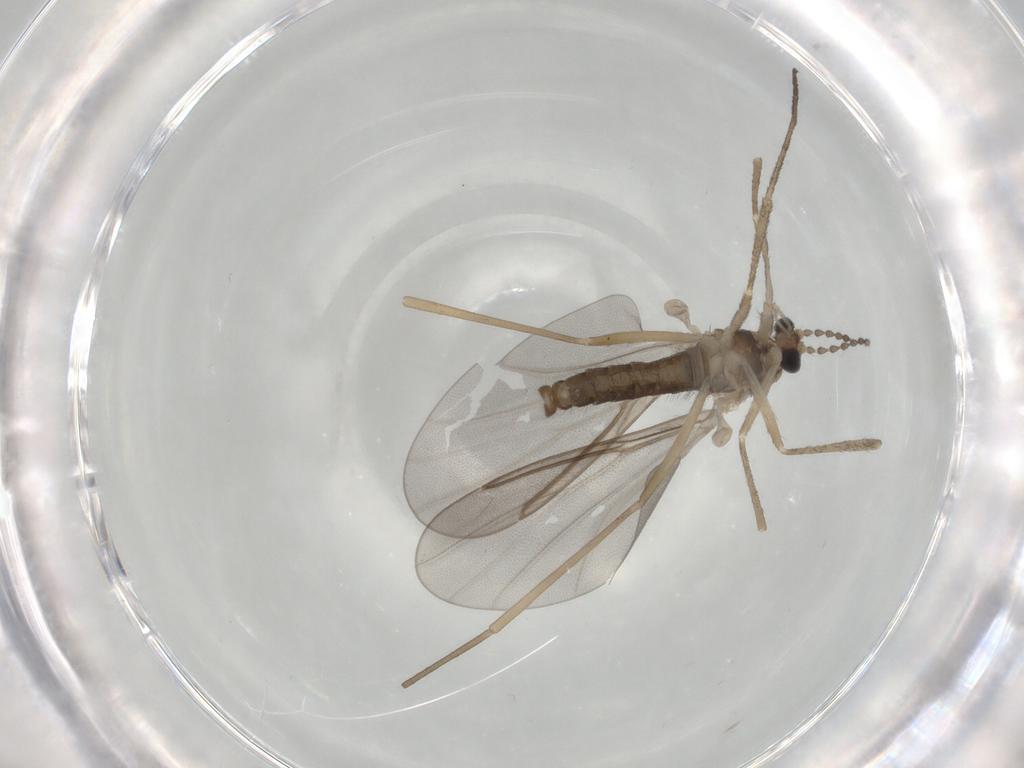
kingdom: Animalia
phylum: Arthropoda
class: Insecta
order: Diptera
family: Cecidomyiidae
